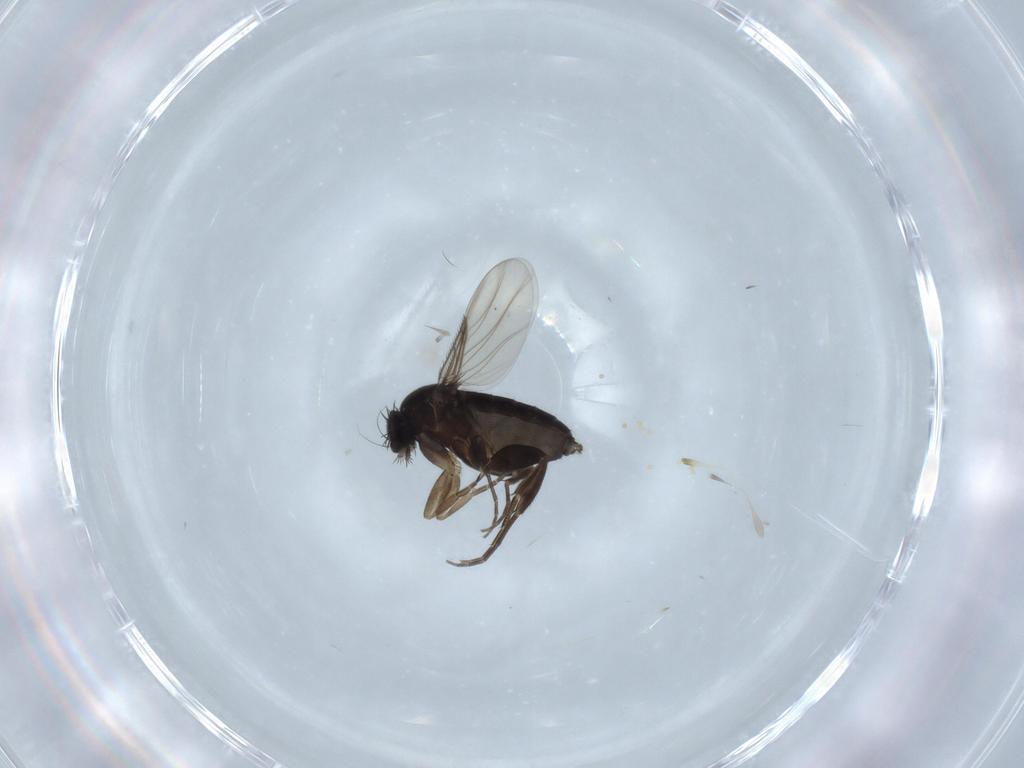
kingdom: Animalia
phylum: Arthropoda
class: Insecta
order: Diptera
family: Phoridae
